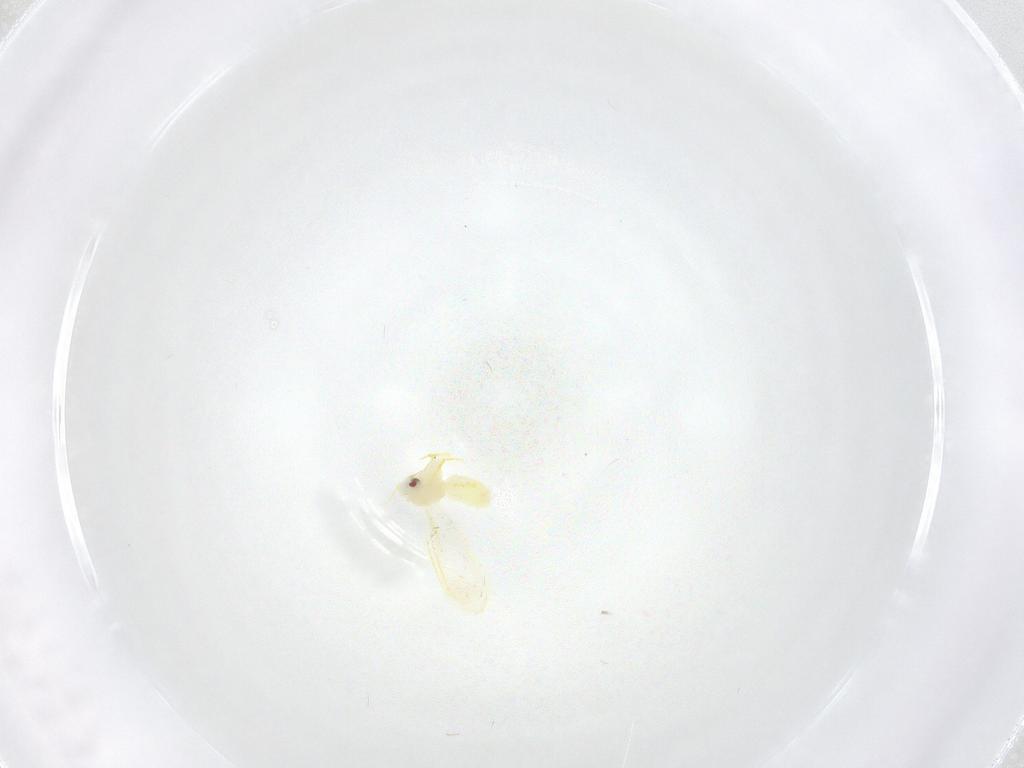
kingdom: Animalia
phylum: Arthropoda
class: Insecta
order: Hemiptera
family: Aleyrodidae
